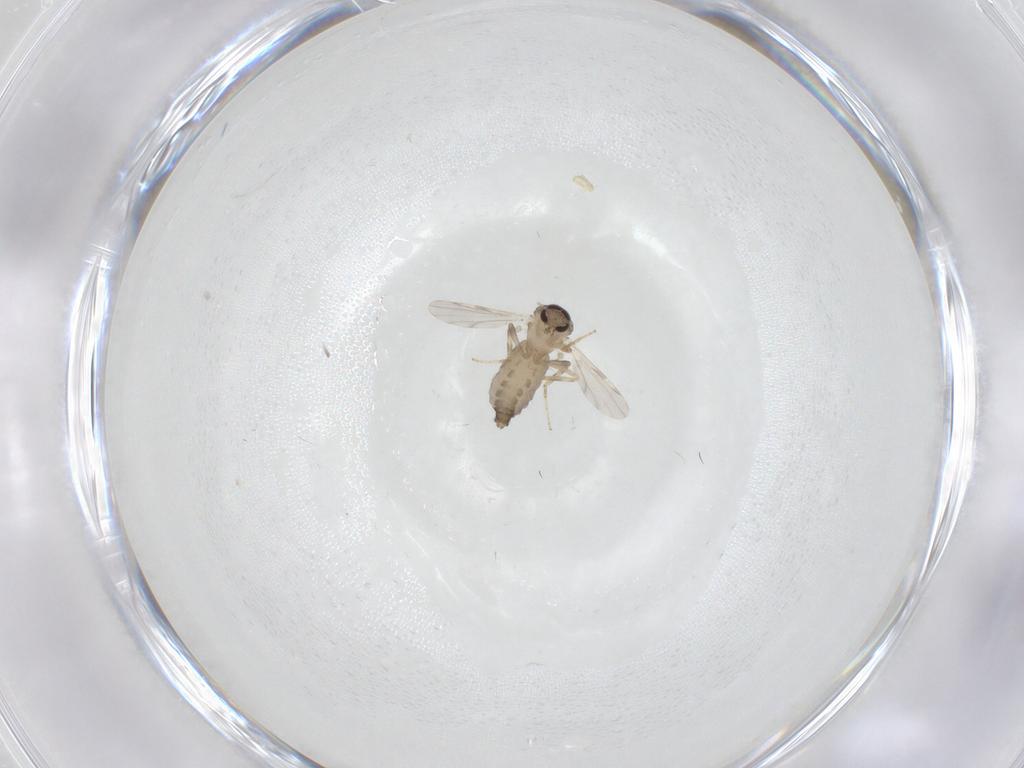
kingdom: Animalia
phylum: Arthropoda
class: Insecta
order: Diptera
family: Ceratopogonidae
